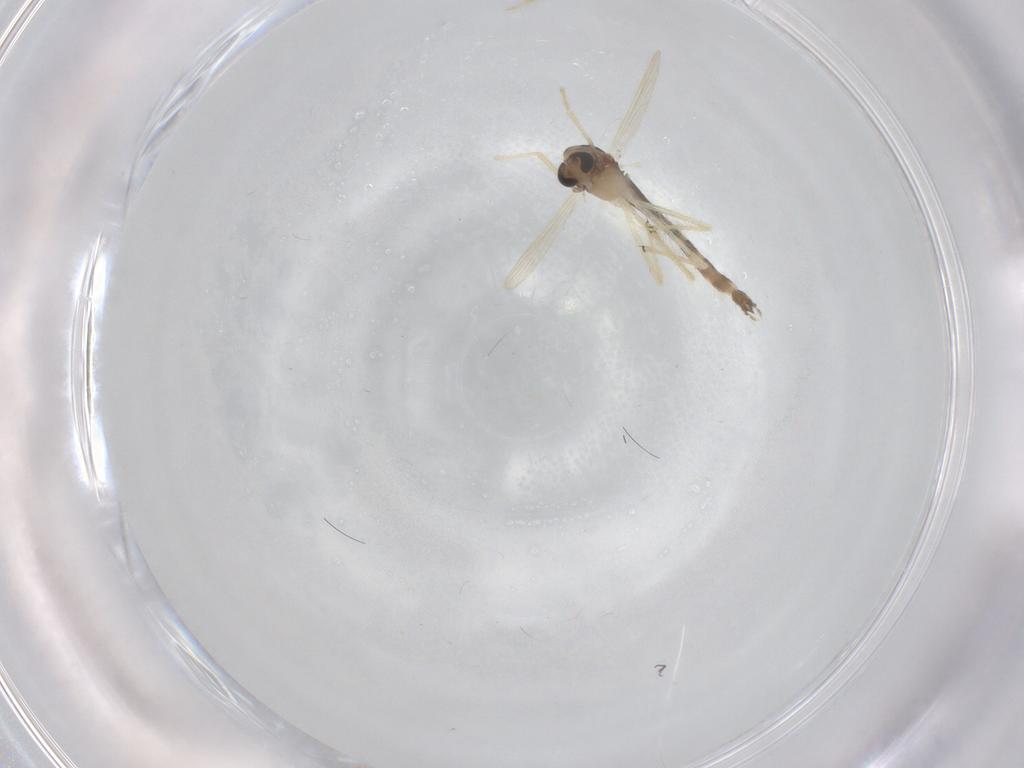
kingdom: Animalia
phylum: Arthropoda
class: Insecta
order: Diptera
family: Chironomidae
